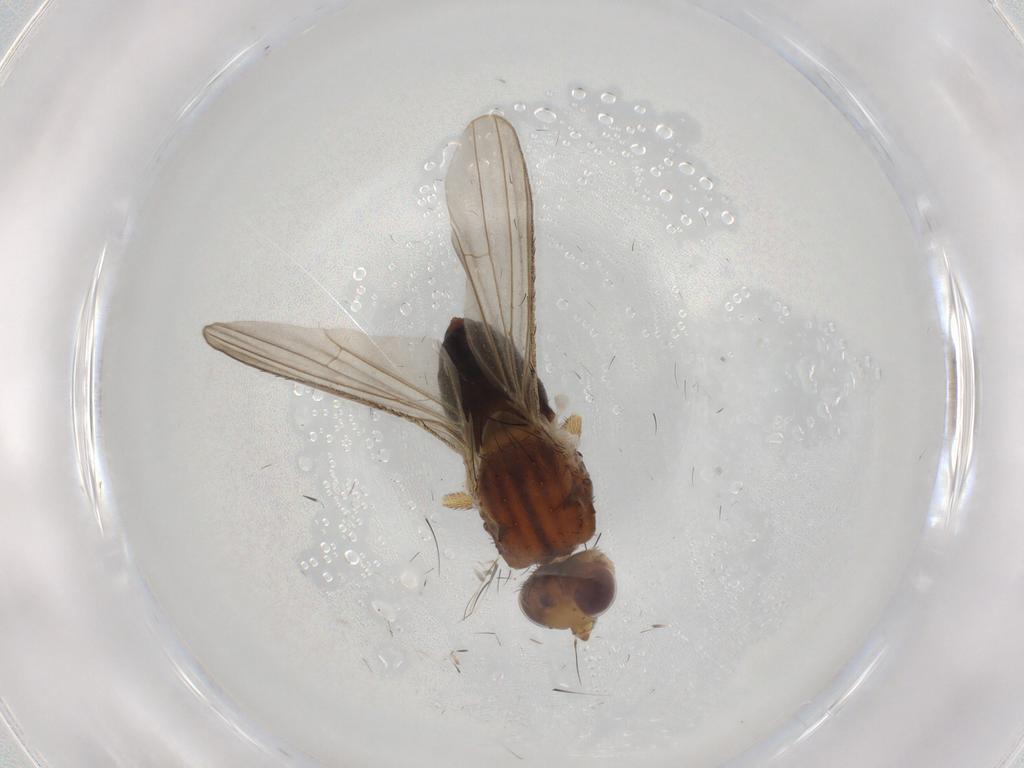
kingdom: Animalia
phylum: Arthropoda
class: Insecta
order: Diptera
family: Heleomyzidae
